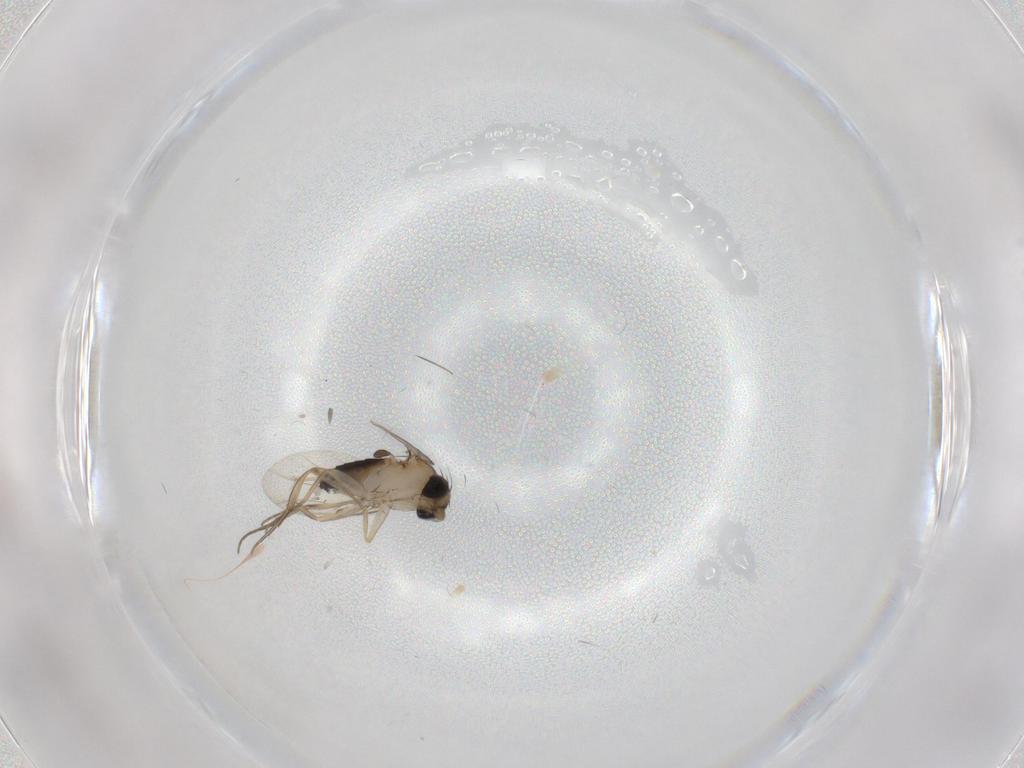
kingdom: Animalia
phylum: Arthropoda
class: Insecta
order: Diptera
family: Phoridae
